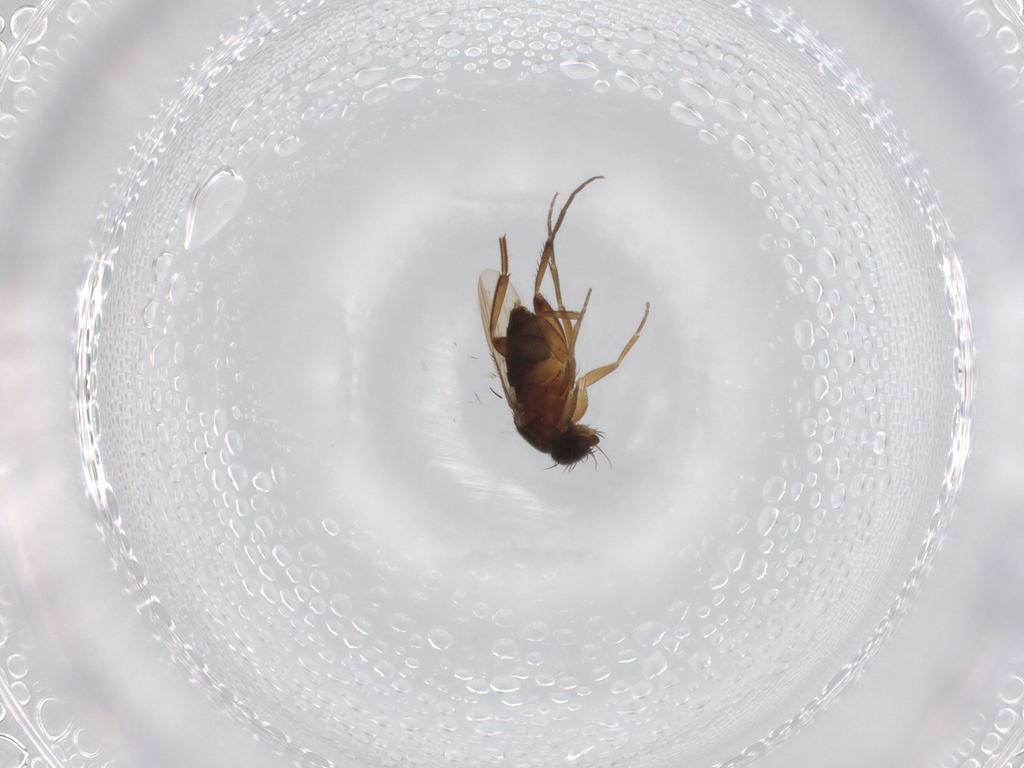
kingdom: Animalia
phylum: Arthropoda
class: Insecta
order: Diptera
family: Phoridae
